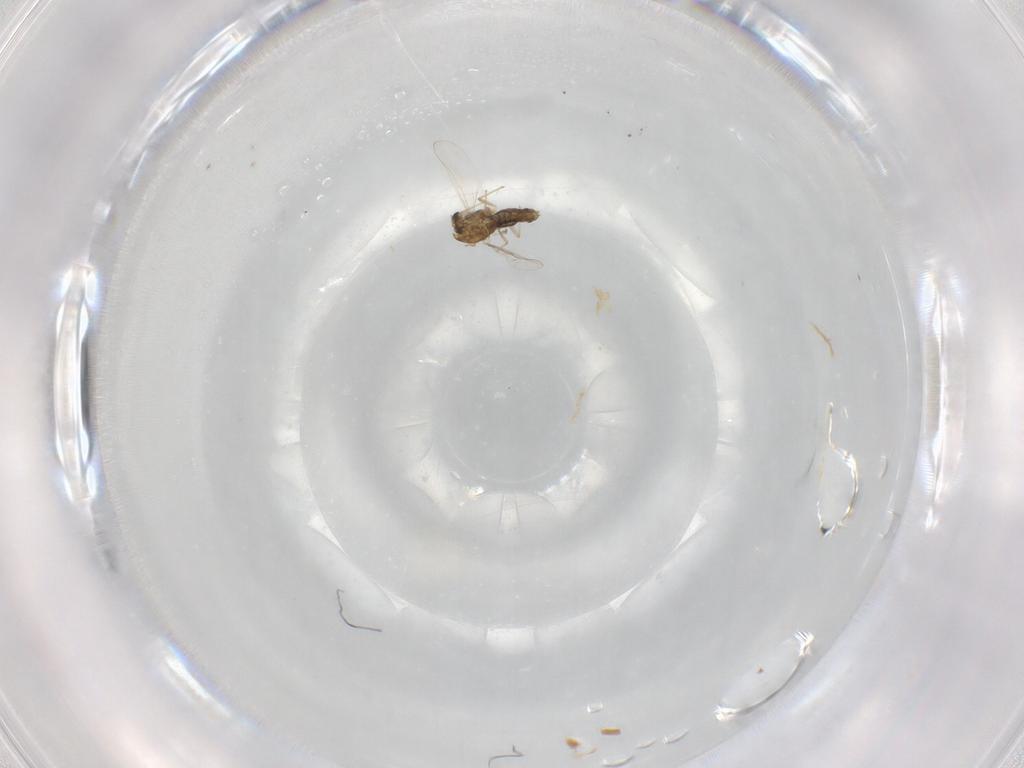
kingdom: Animalia
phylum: Arthropoda
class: Insecta
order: Diptera
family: Chironomidae
